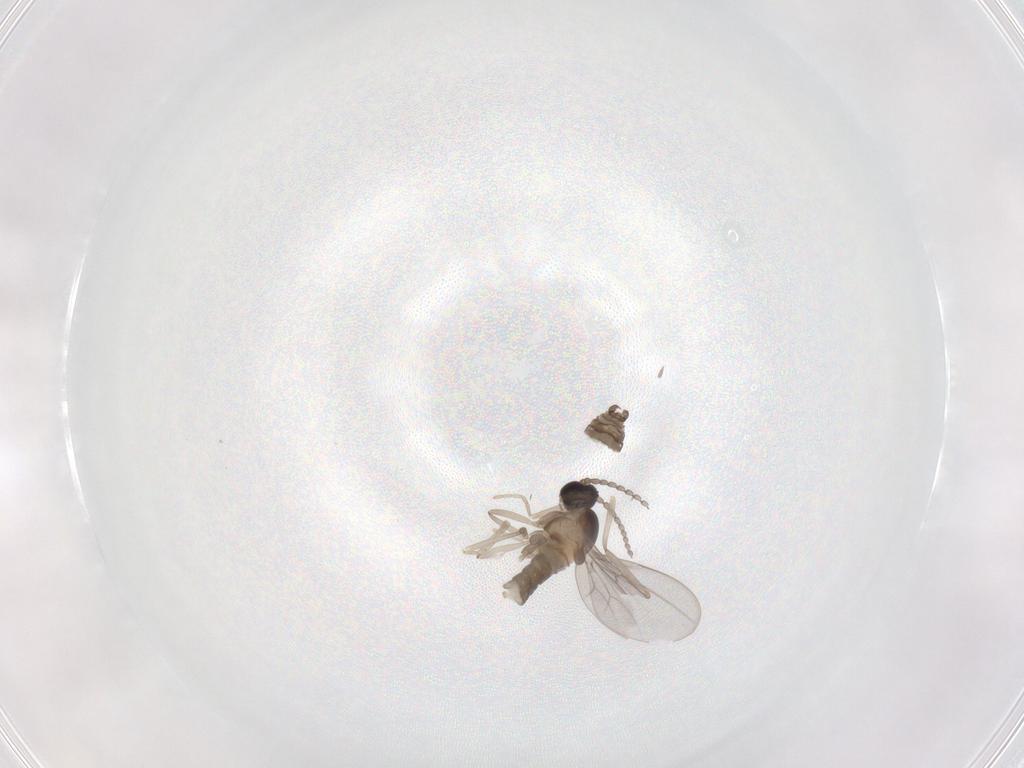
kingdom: Animalia
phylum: Arthropoda
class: Insecta
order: Diptera
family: Cecidomyiidae
